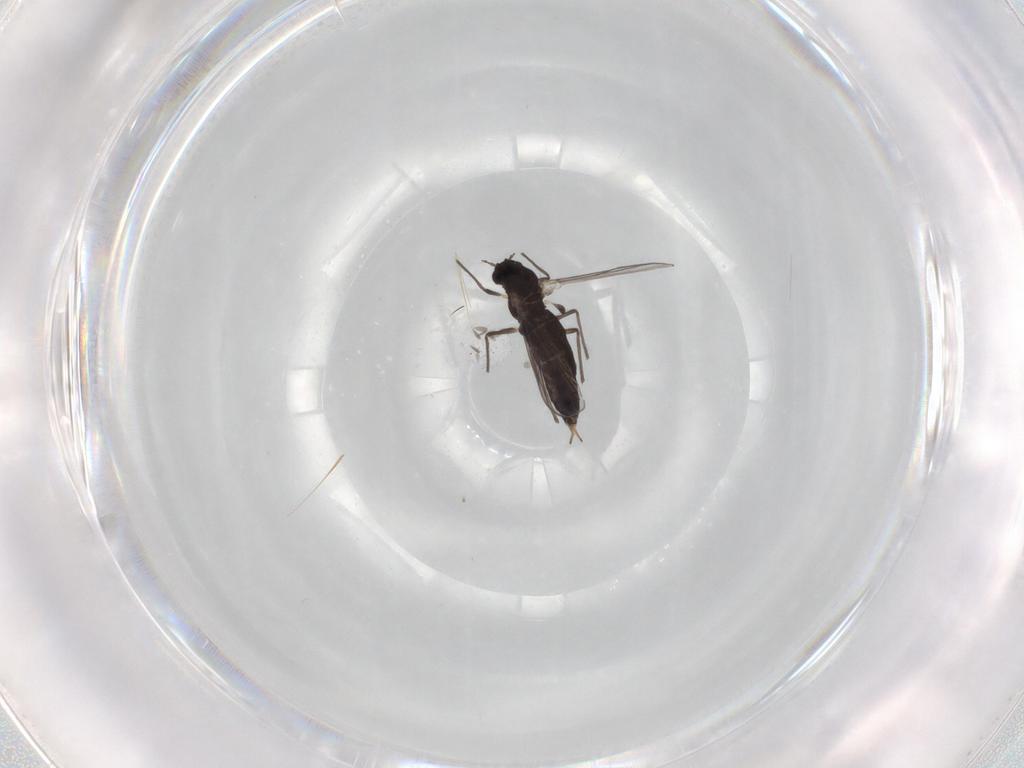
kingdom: Animalia
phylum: Arthropoda
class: Insecta
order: Diptera
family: Chironomidae
